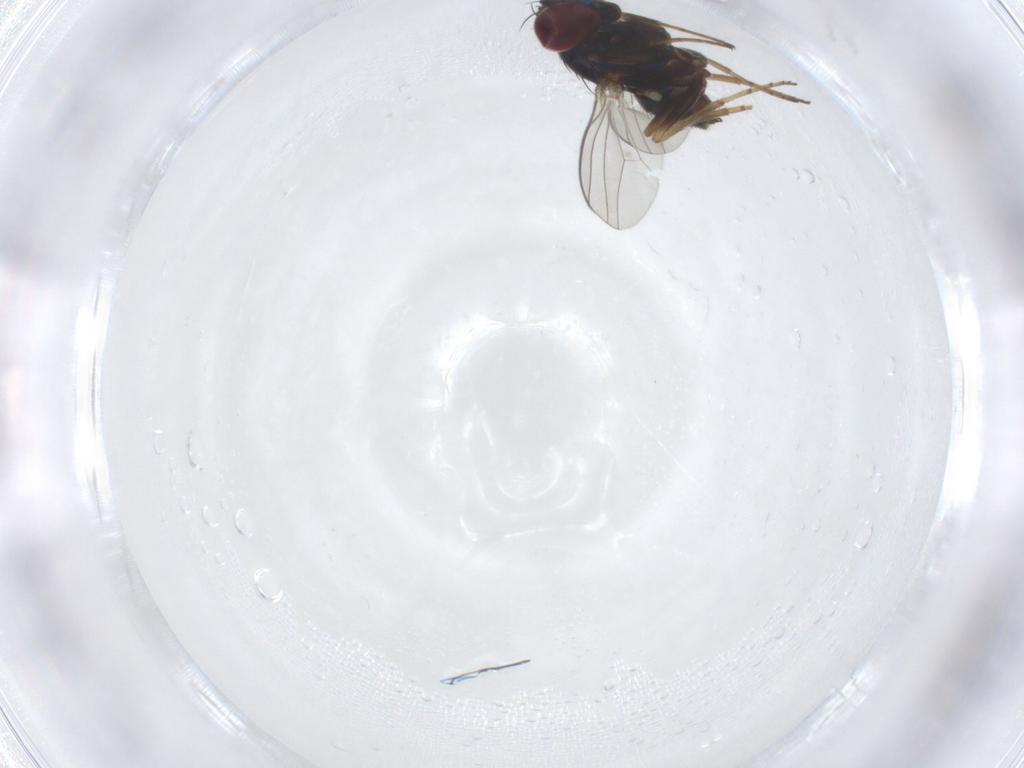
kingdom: Animalia
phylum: Arthropoda
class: Insecta
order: Diptera
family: Dolichopodidae
